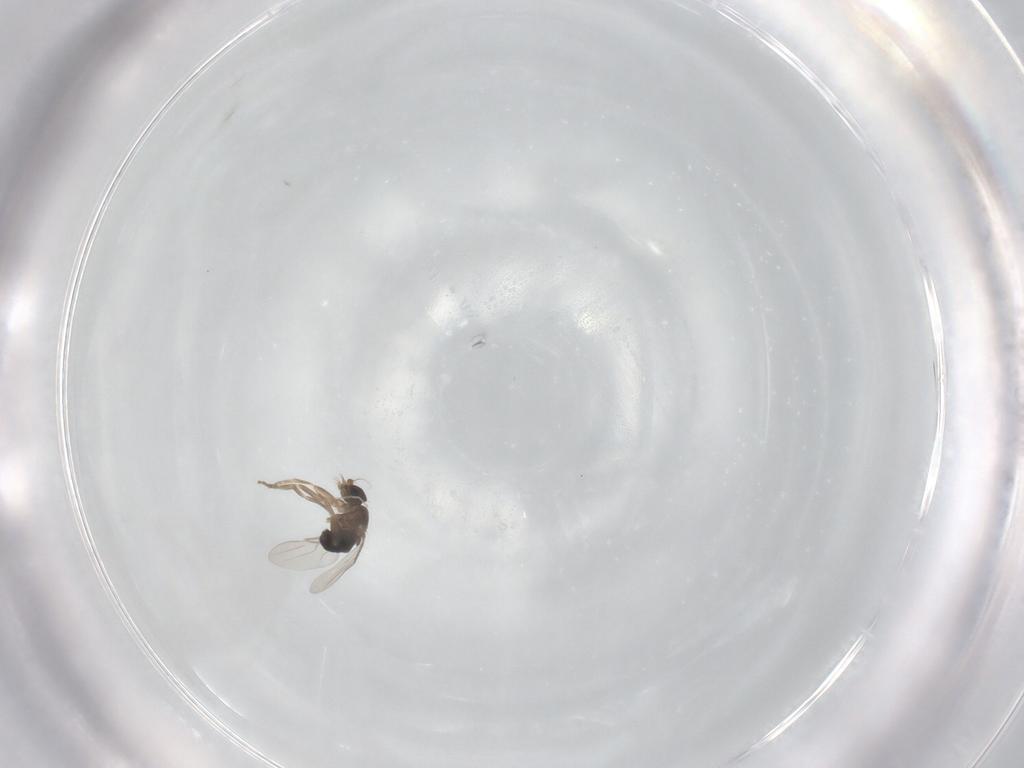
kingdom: Animalia
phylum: Arthropoda
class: Insecta
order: Diptera
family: Phoridae
